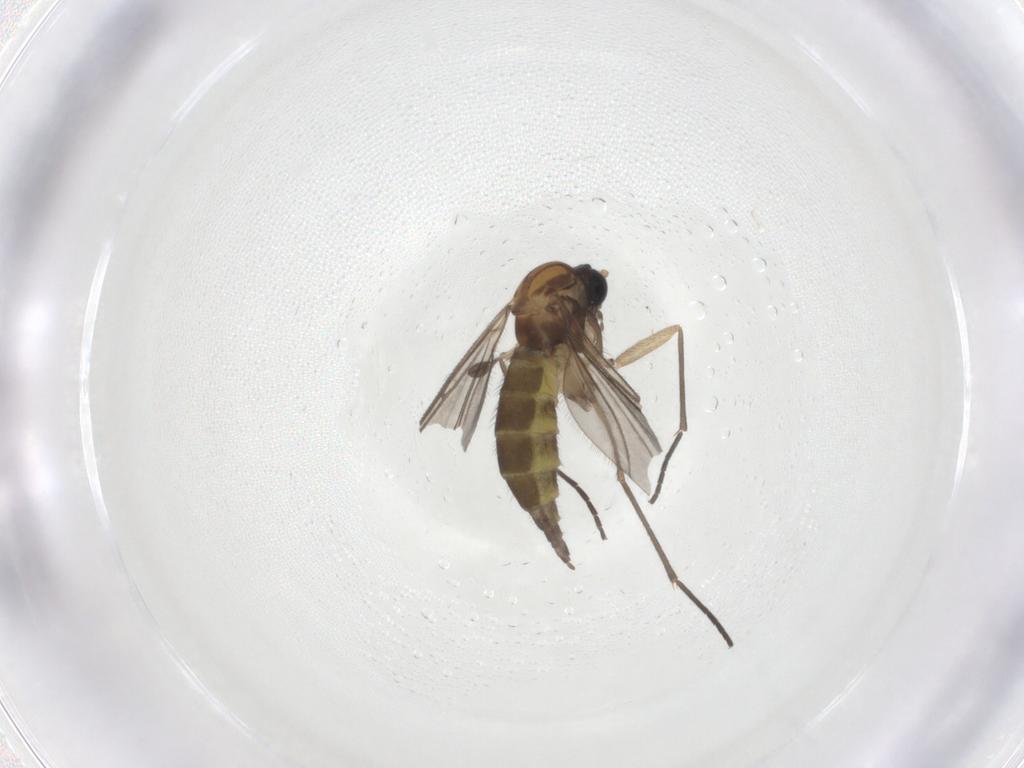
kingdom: Animalia
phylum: Arthropoda
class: Insecta
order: Diptera
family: Sciaridae
